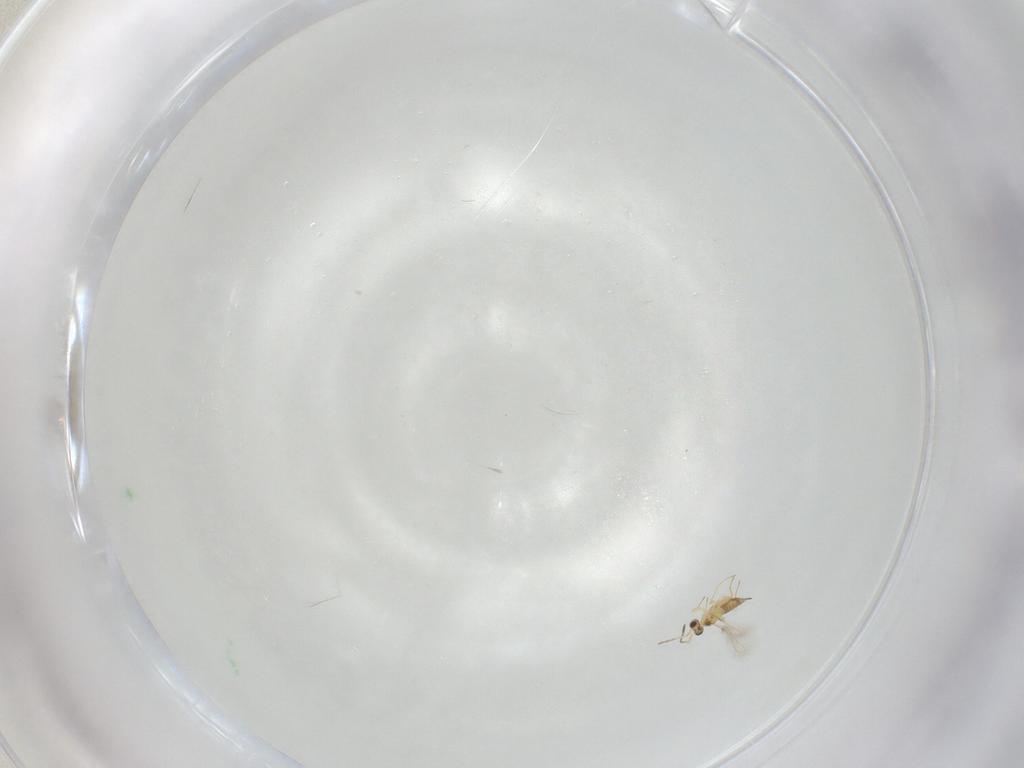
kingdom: Animalia
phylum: Arthropoda
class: Insecta
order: Hymenoptera
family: Mymaridae
